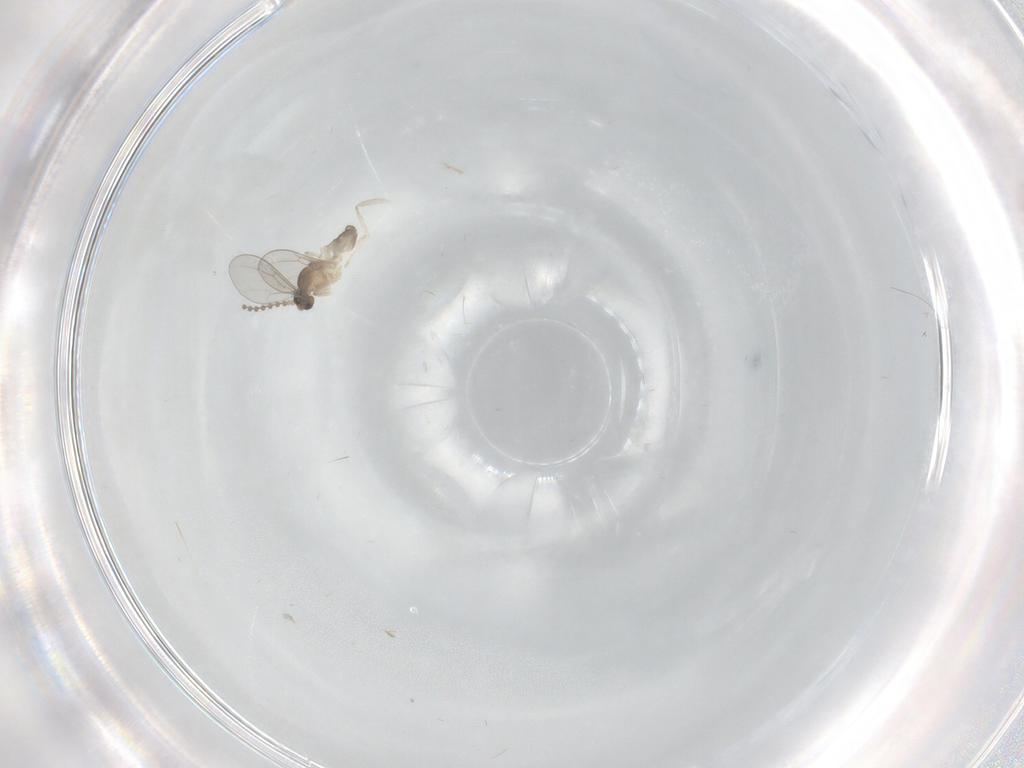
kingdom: Animalia
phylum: Arthropoda
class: Insecta
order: Diptera
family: Cecidomyiidae
